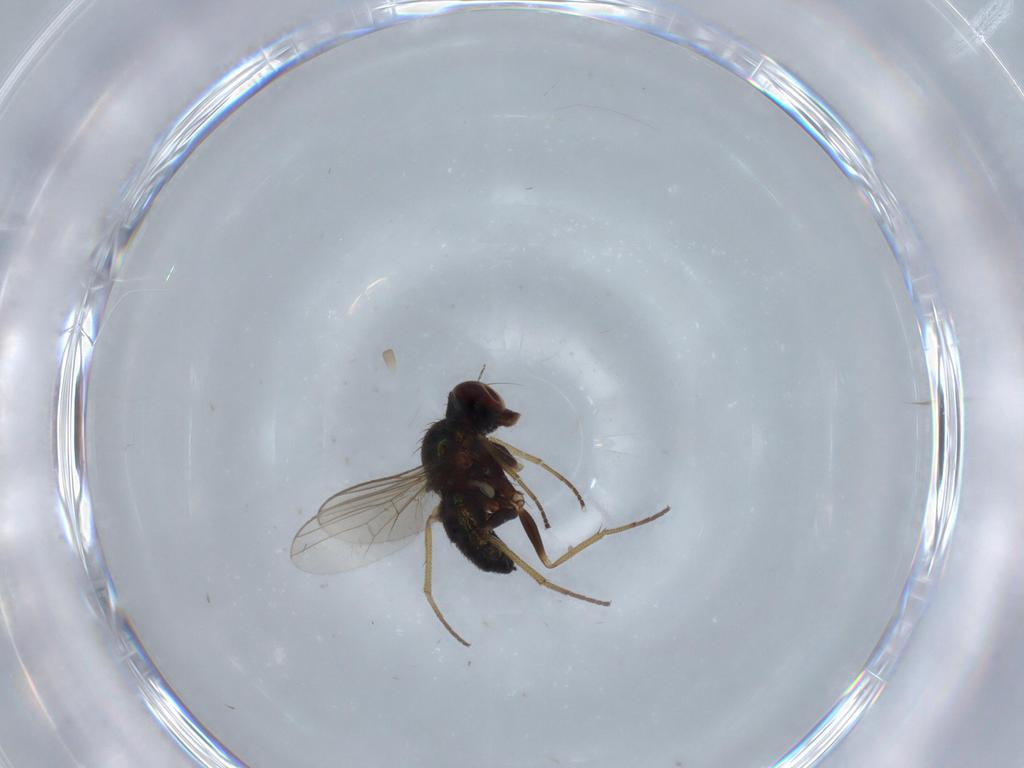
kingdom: Animalia
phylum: Arthropoda
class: Insecta
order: Diptera
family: Dolichopodidae
